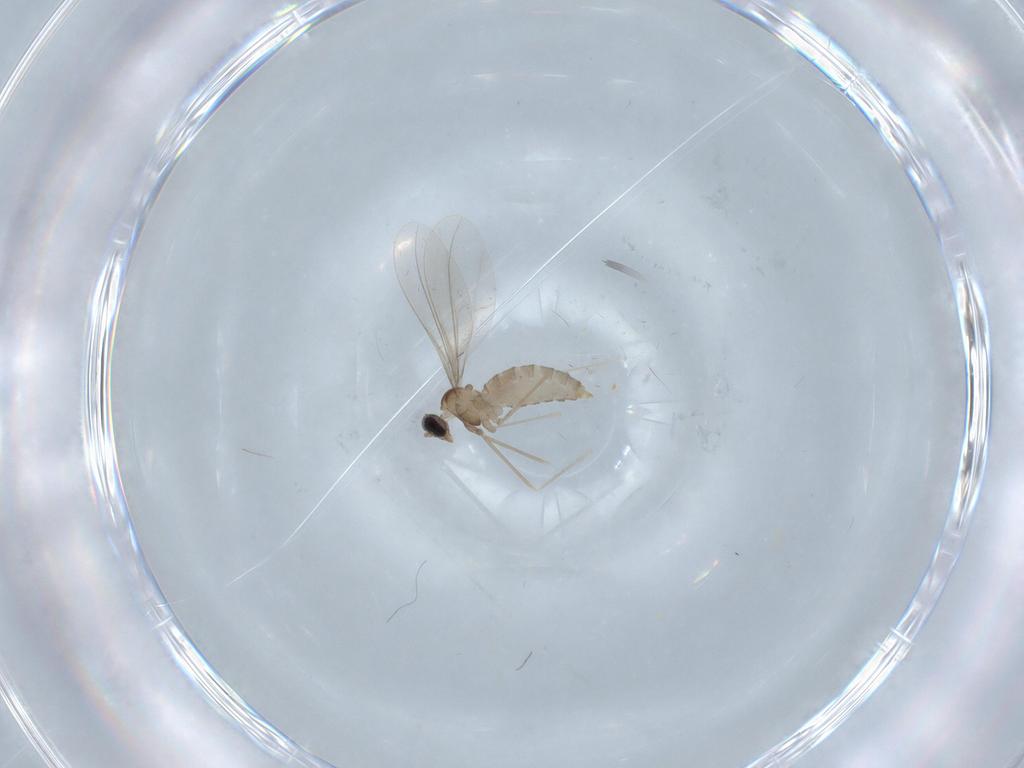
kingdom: Animalia
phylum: Arthropoda
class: Insecta
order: Diptera
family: Cecidomyiidae
